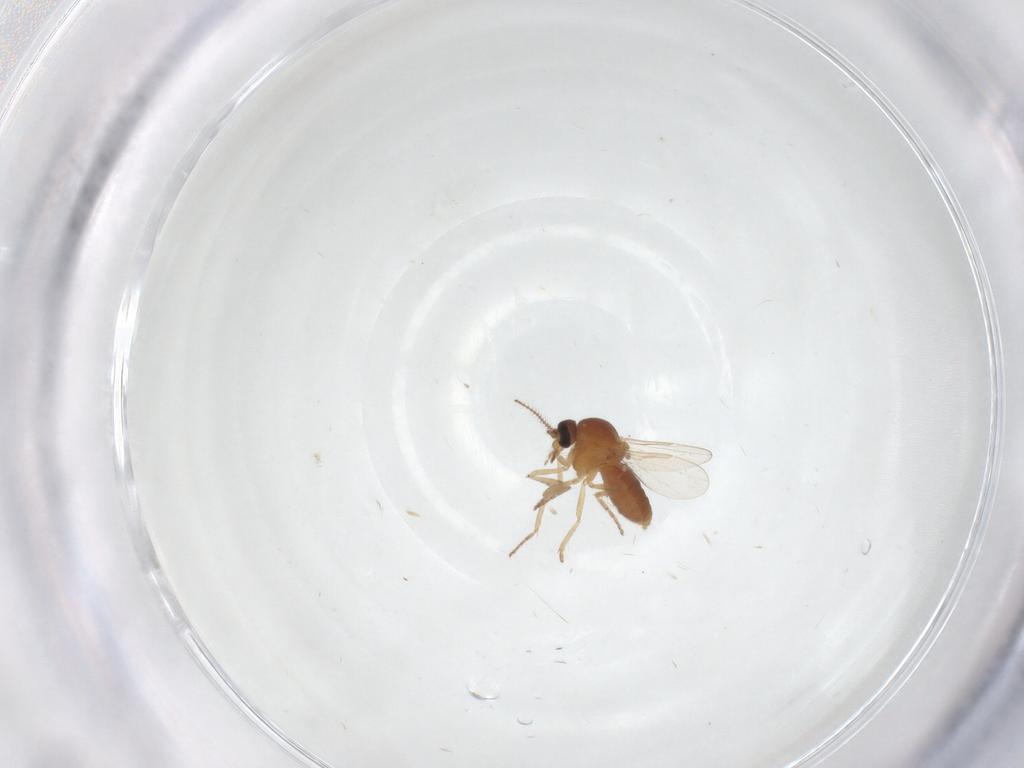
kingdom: Animalia
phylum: Arthropoda
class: Insecta
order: Diptera
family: Ceratopogonidae
